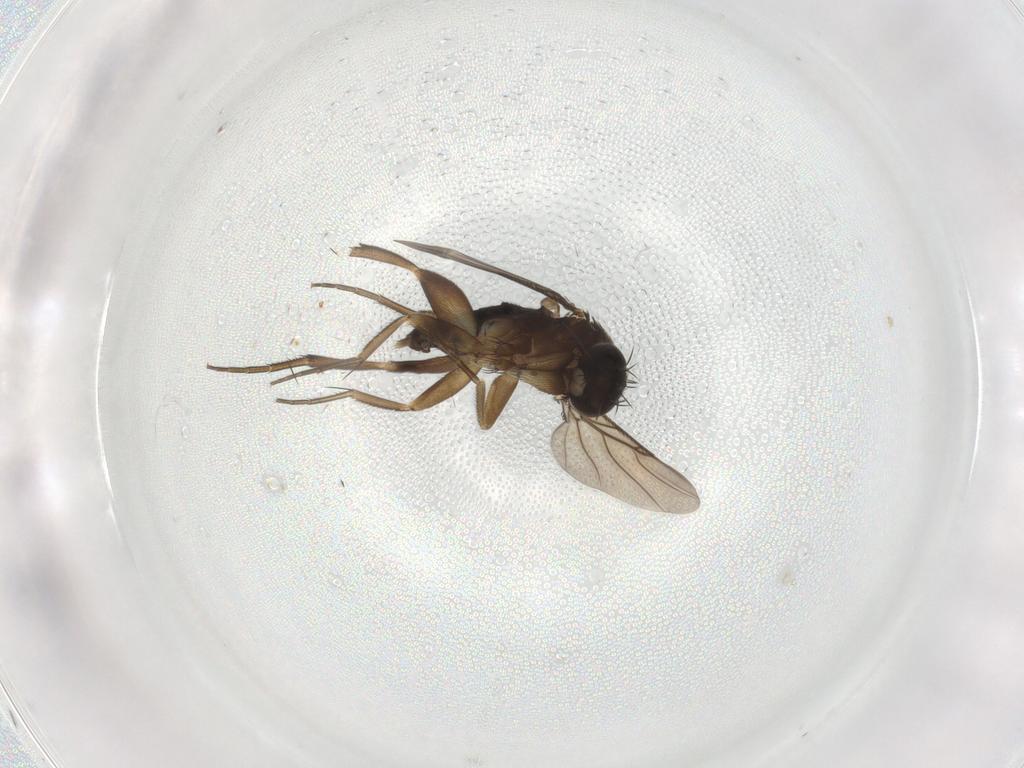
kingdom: Animalia
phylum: Arthropoda
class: Insecta
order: Diptera
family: Phoridae
